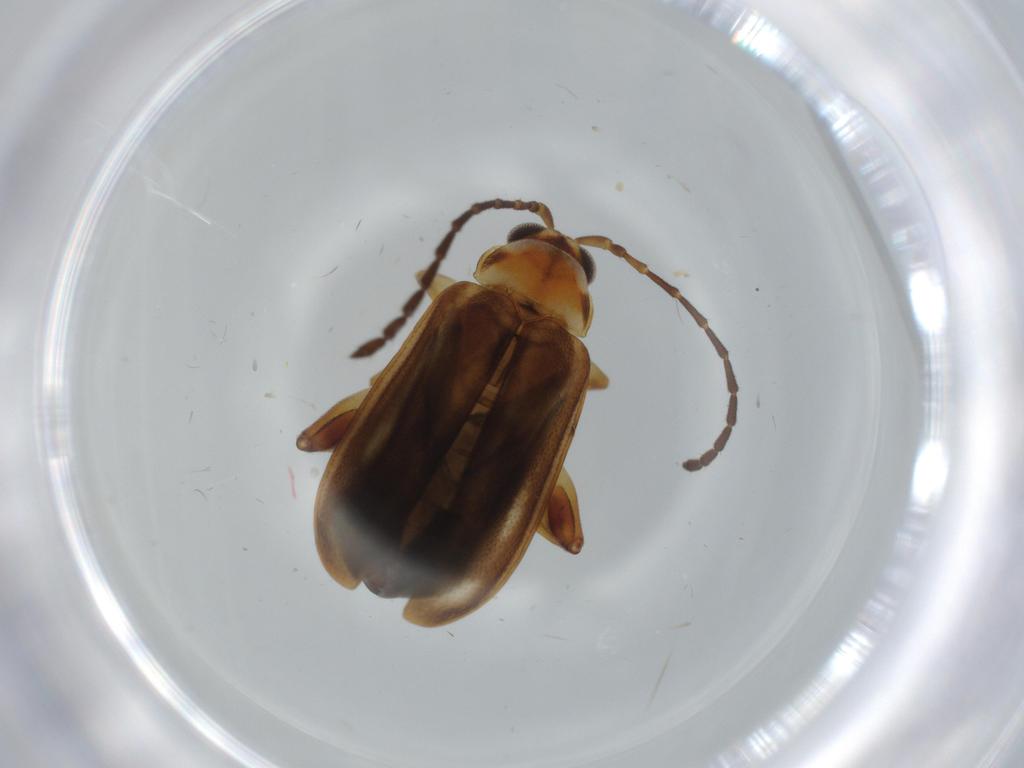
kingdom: Animalia
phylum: Arthropoda
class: Insecta
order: Coleoptera
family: Chrysomelidae
